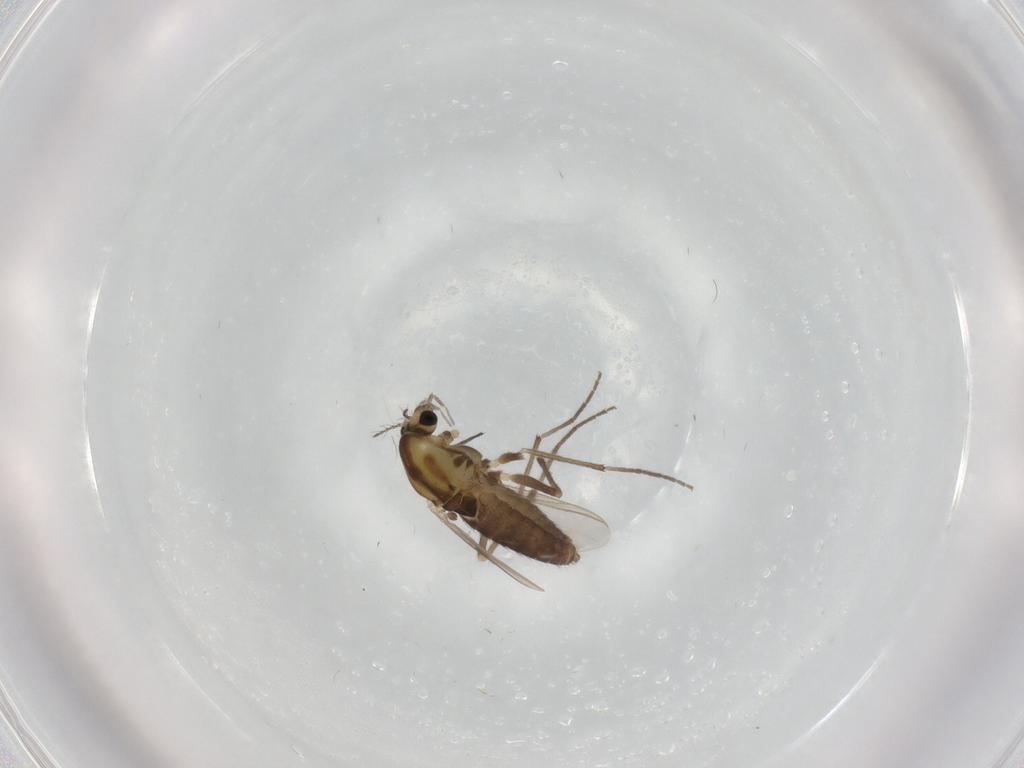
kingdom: Animalia
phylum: Arthropoda
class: Insecta
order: Diptera
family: Chironomidae
